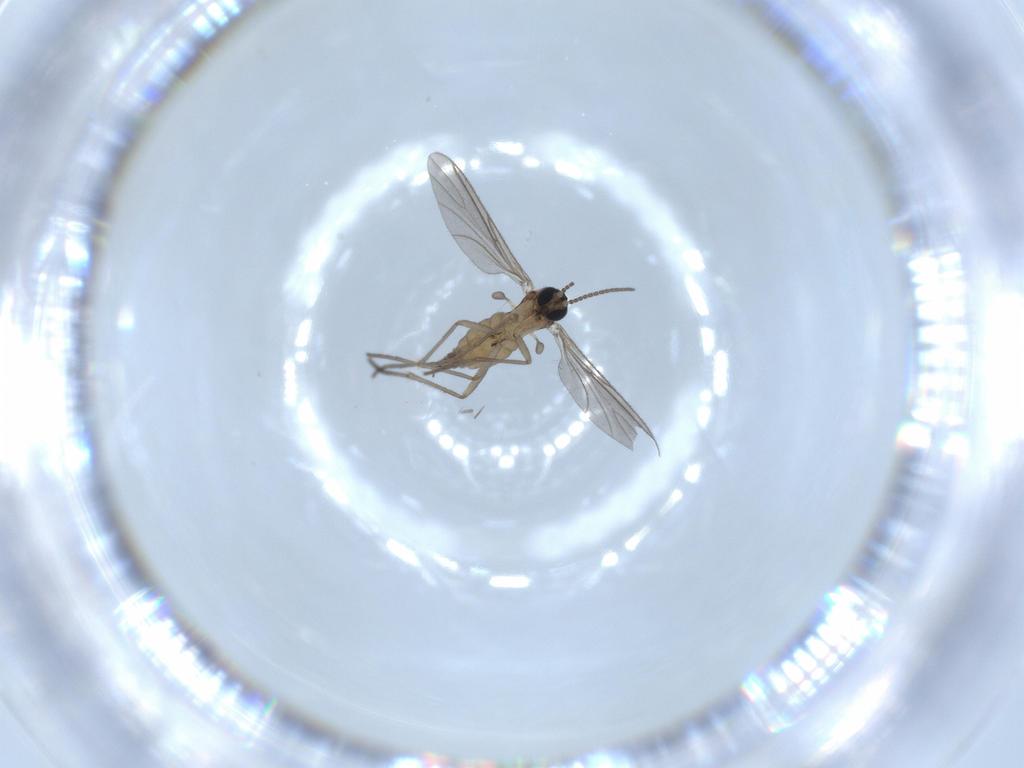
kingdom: Animalia
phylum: Arthropoda
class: Insecta
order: Diptera
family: Sciaridae
